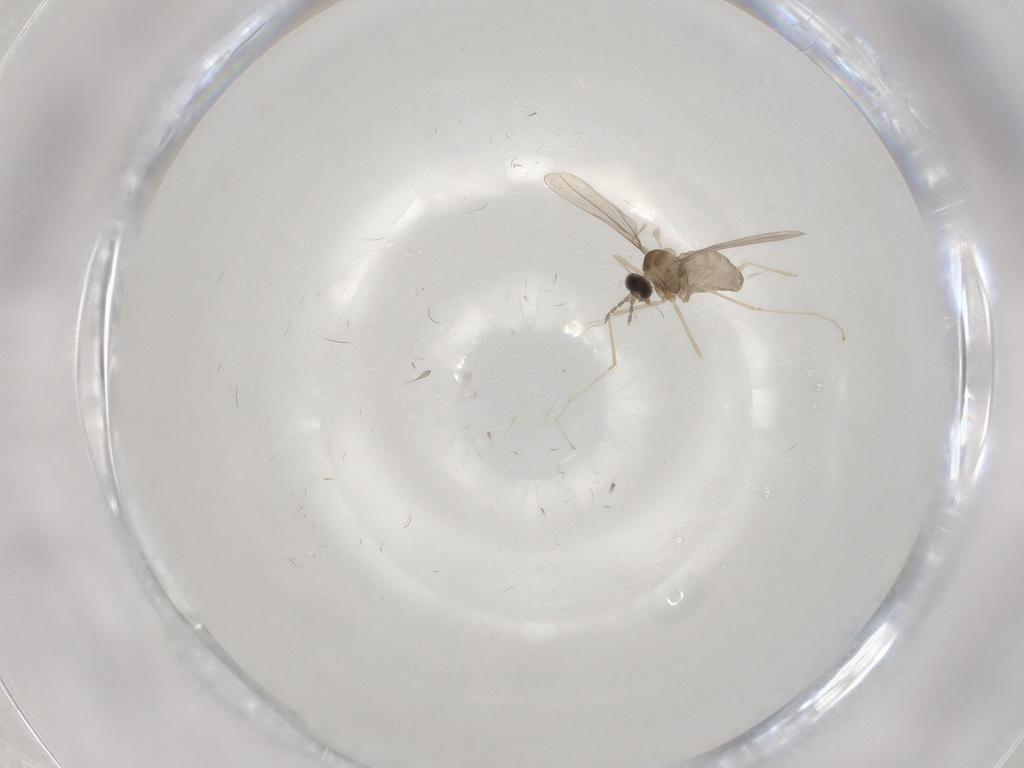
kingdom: Animalia
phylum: Arthropoda
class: Insecta
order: Diptera
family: Cecidomyiidae
